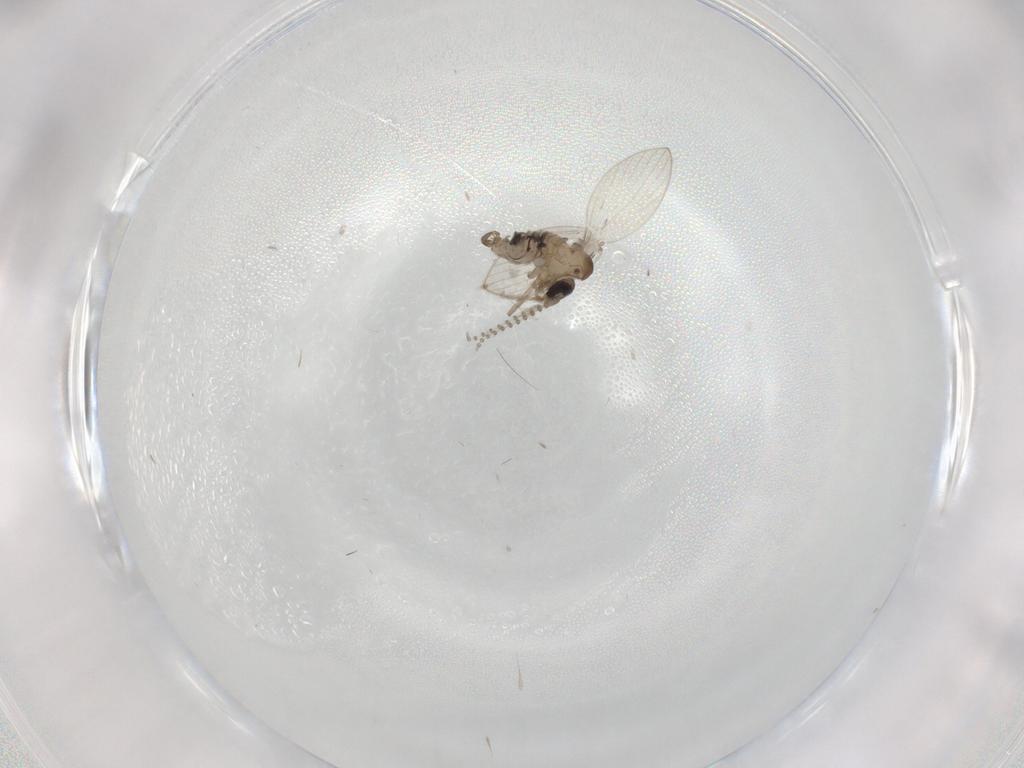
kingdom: Animalia
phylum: Arthropoda
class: Insecta
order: Diptera
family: Psychodidae
